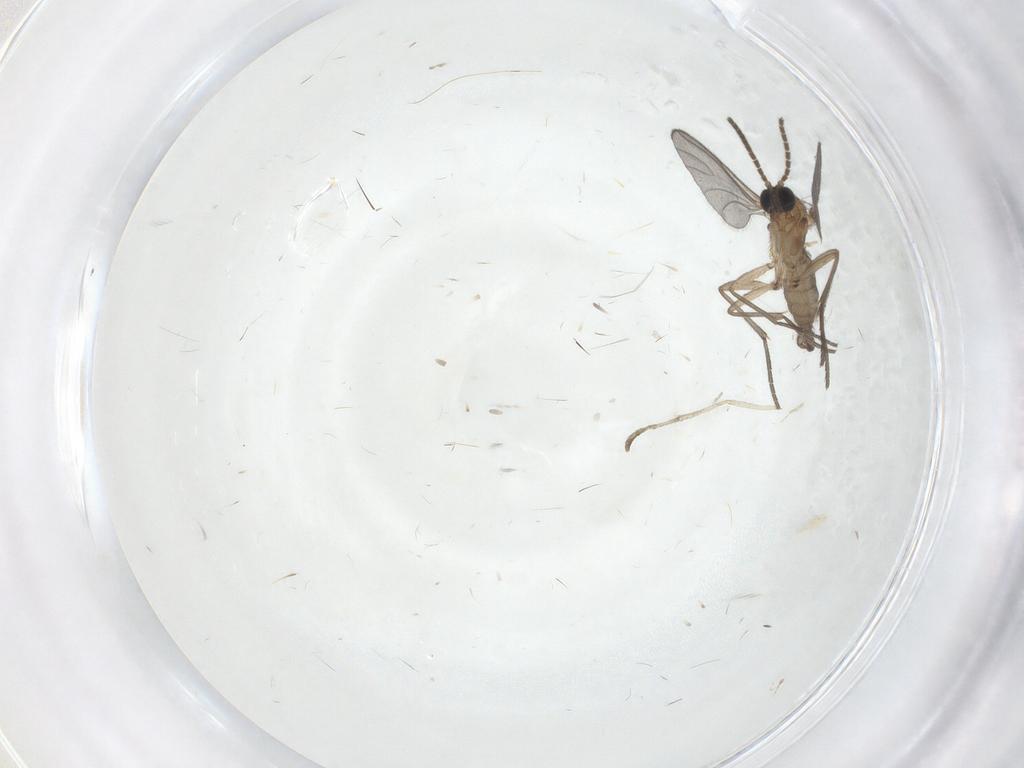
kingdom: Animalia
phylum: Arthropoda
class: Insecta
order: Diptera
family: Sciaridae
